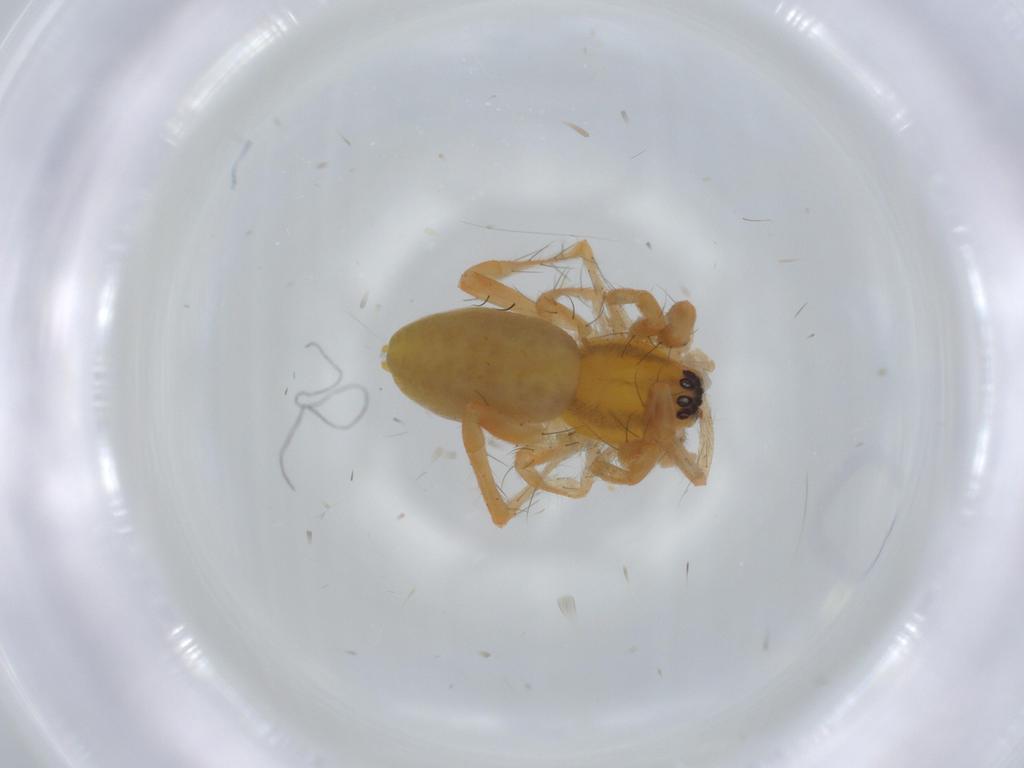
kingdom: Animalia
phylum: Arthropoda
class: Arachnida
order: Araneae
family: Anyphaenidae
